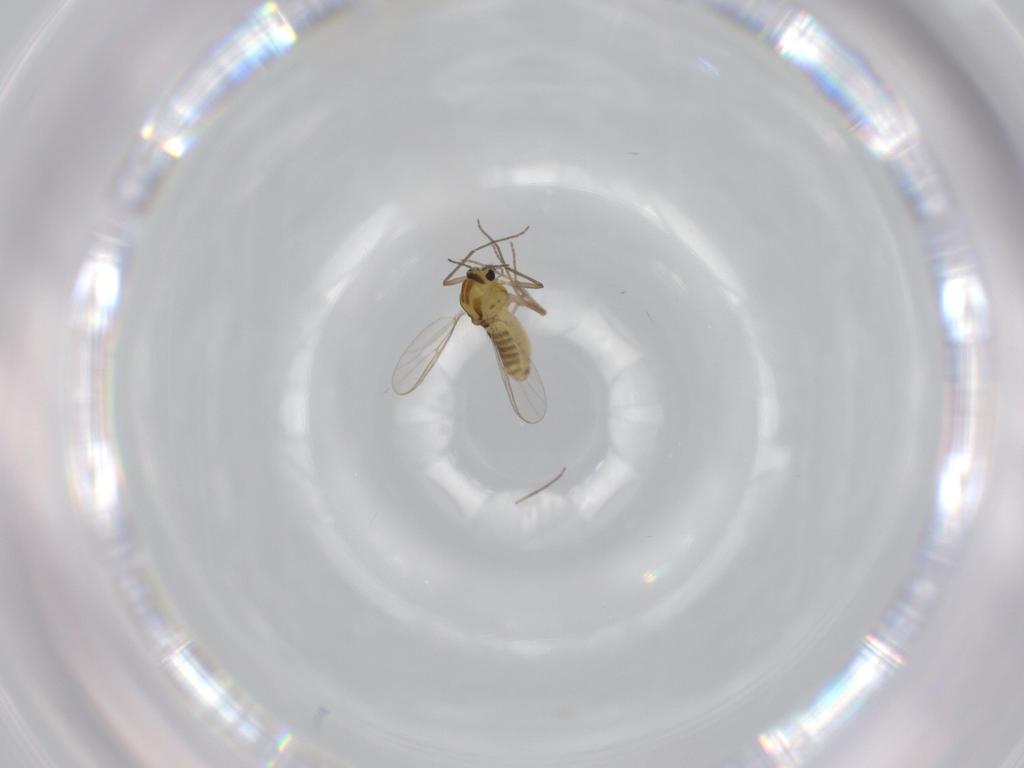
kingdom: Animalia
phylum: Arthropoda
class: Insecta
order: Diptera
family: Chironomidae
